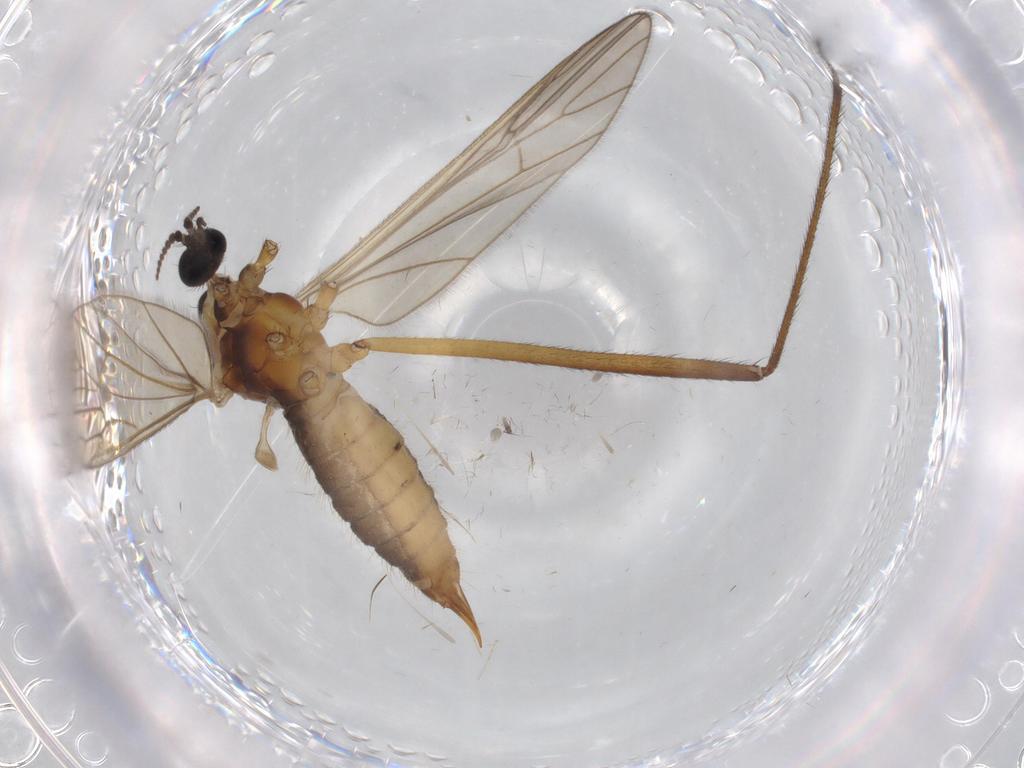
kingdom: Animalia
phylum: Arthropoda
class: Insecta
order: Diptera
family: Agromyzidae
